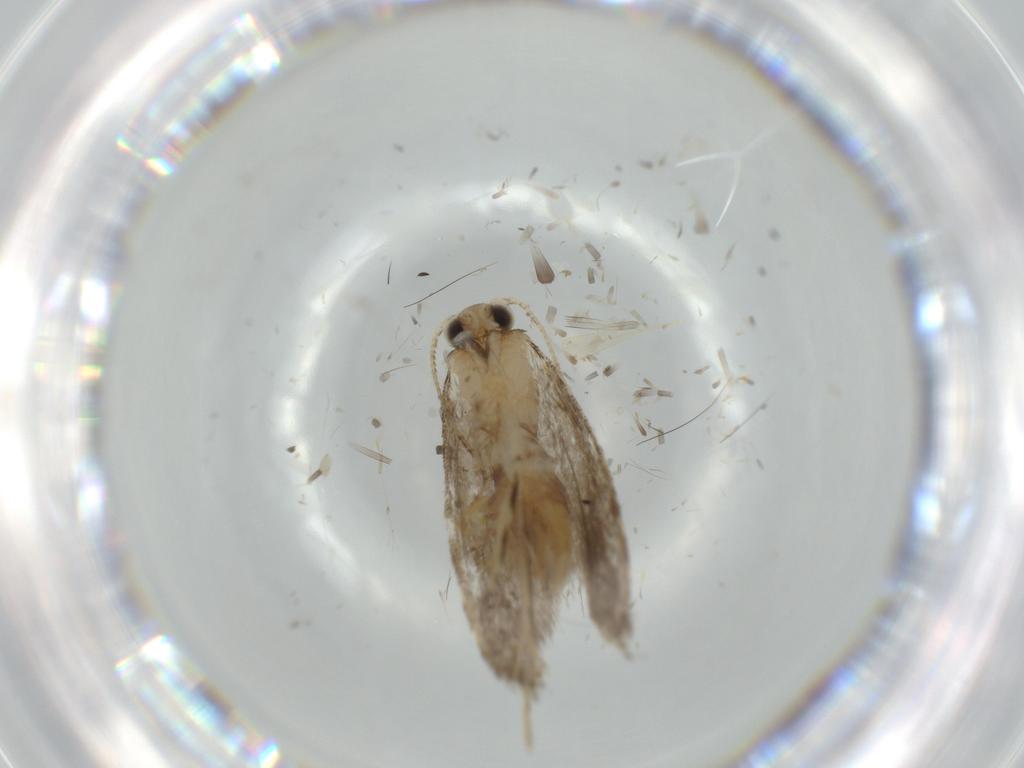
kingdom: Animalia
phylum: Arthropoda
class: Insecta
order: Lepidoptera
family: Tineidae
